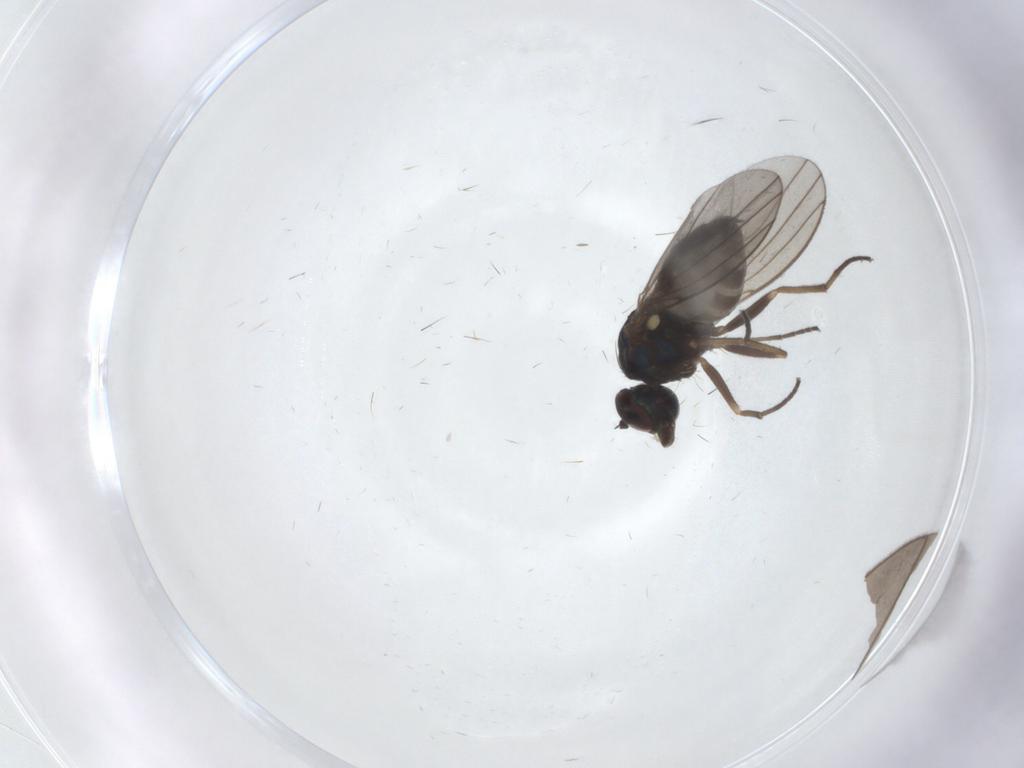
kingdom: Animalia
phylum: Arthropoda
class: Insecta
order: Diptera
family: Dolichopodidae
